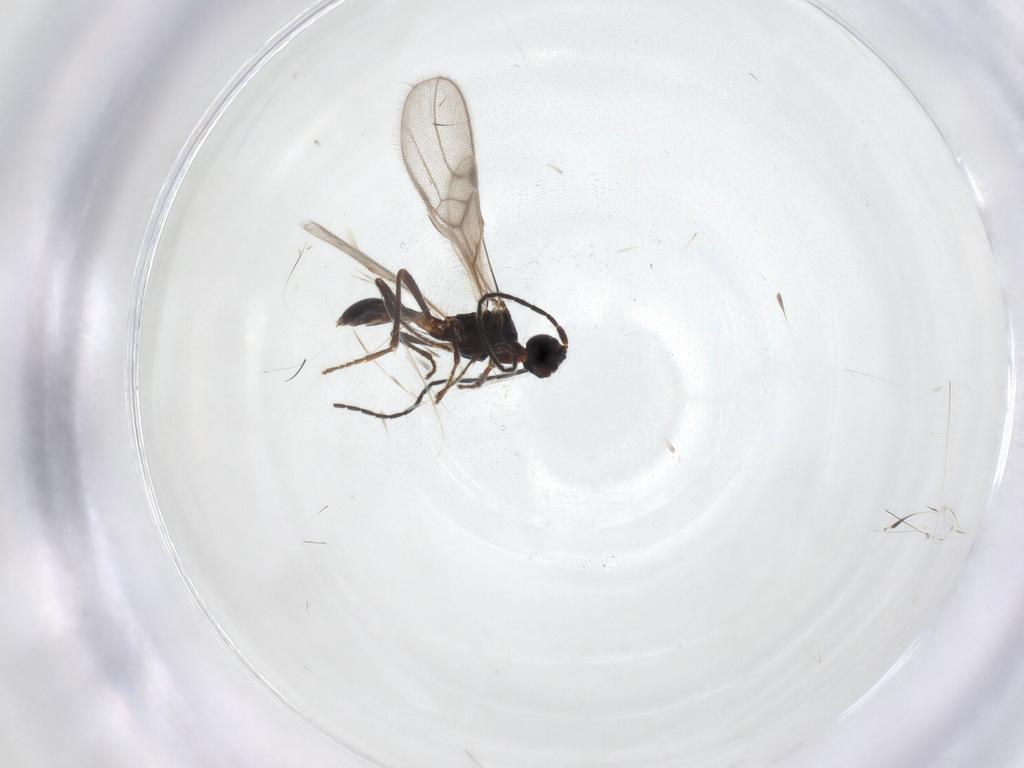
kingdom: Animalia
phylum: Arthropoda
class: Insecta
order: Hymenoptera
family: Braconidae
